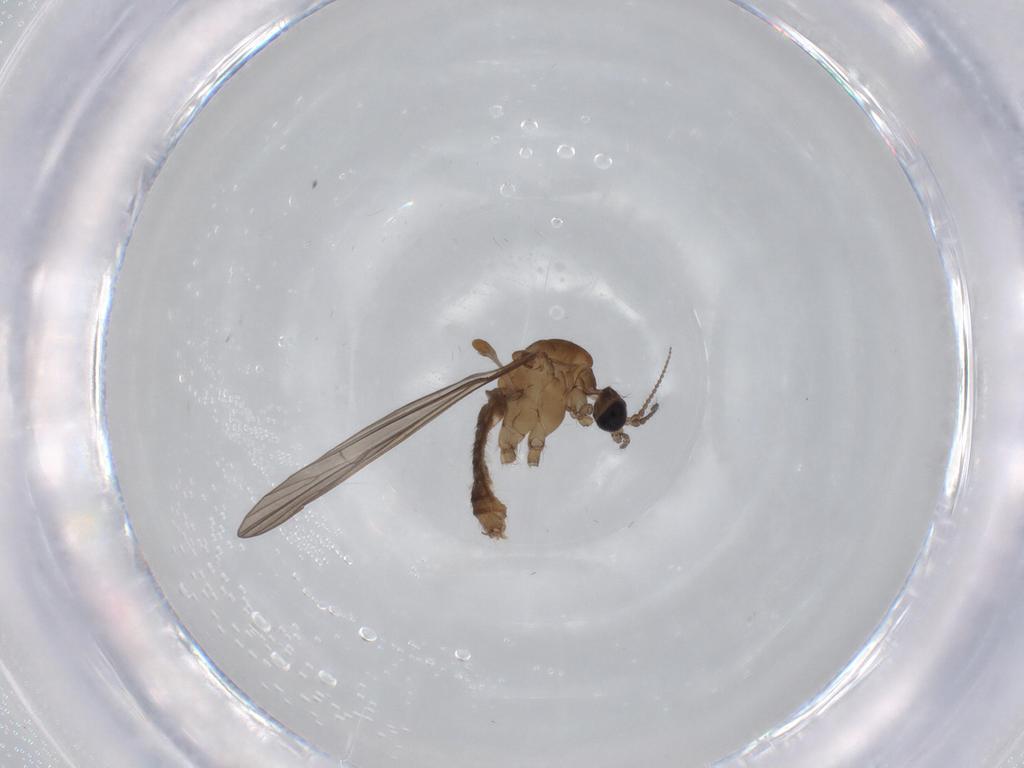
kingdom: Animalia
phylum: Arthropoda
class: Insecta
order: Diptera
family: Limoniidae
